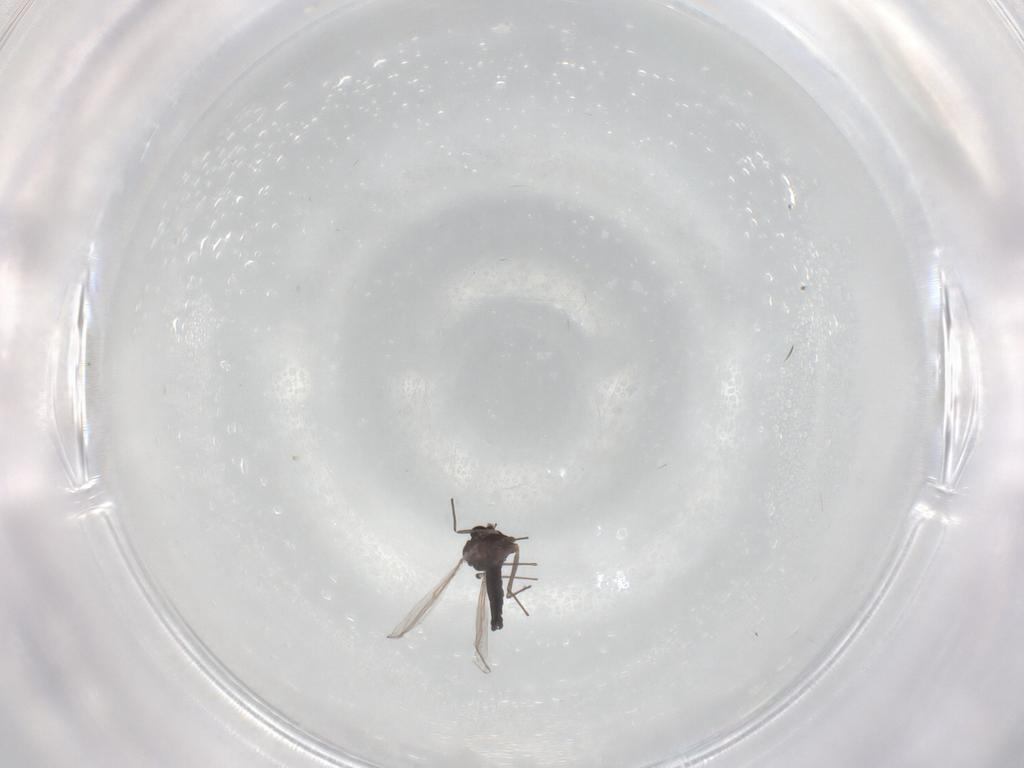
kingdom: Animalia
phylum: Arthropoda
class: Insecta
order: Diptera
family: Chironomidae
